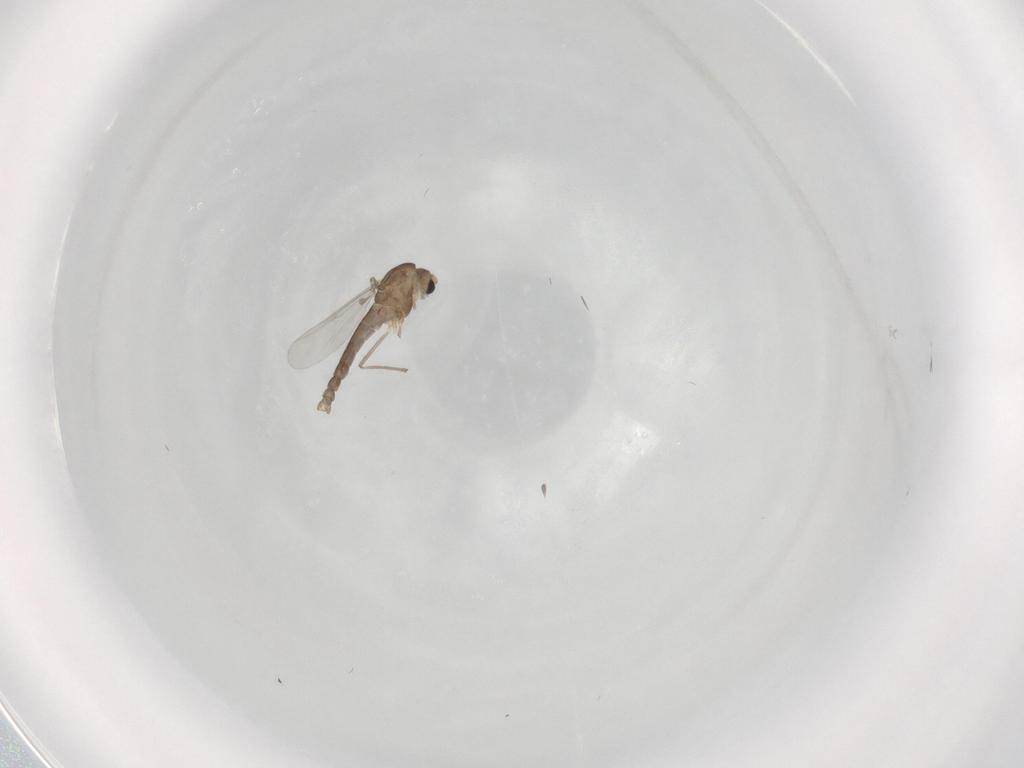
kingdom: Animalia
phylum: Arthropoda
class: Insecta
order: Diptera
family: Chironomidae
